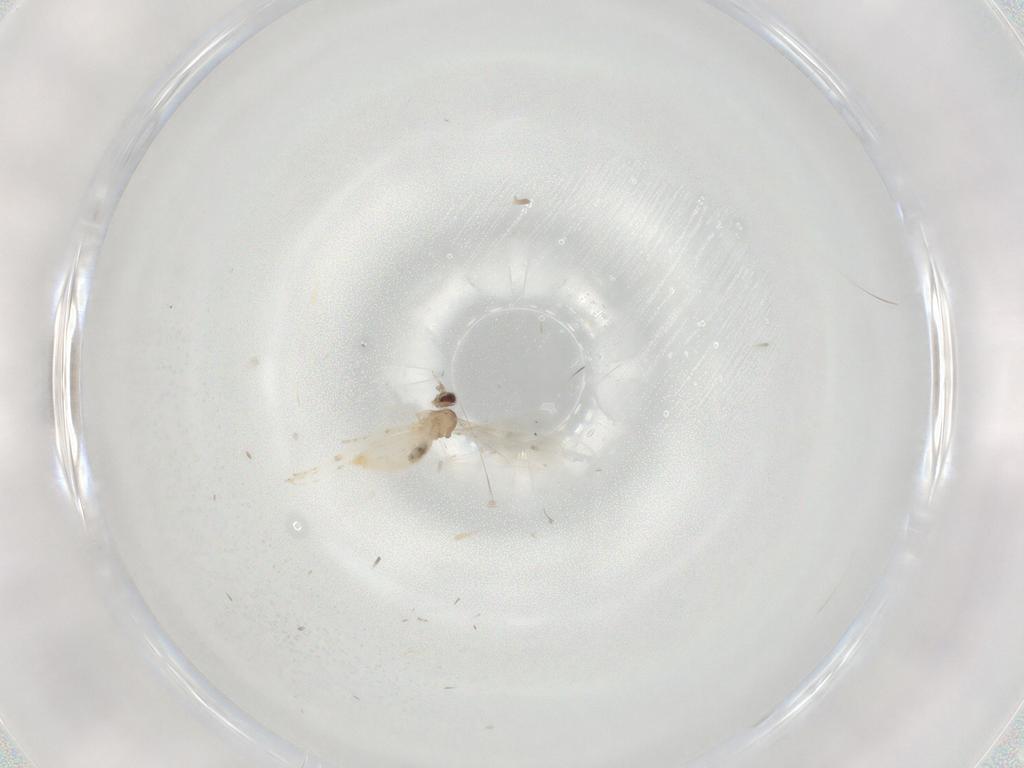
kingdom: Animalia
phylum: Arthropoda
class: Insecta
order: Diptera
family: Cecidomyiidae
